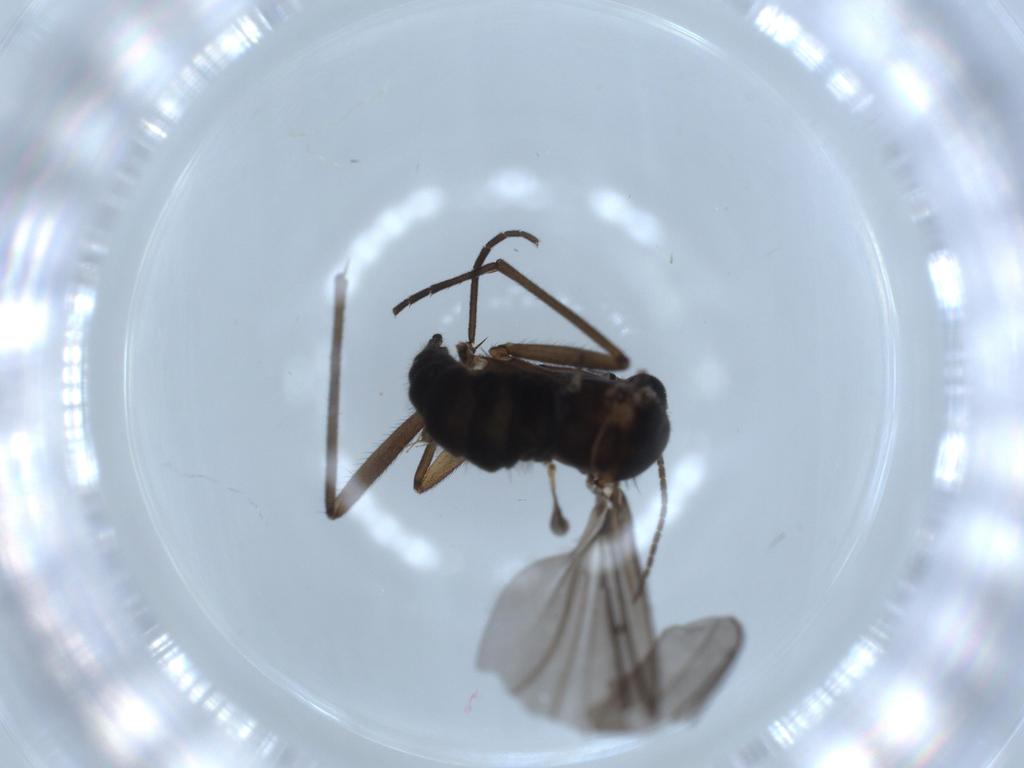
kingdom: Animalia
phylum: Arthropoda
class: Insecta
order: Diptera
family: Sciaridae
